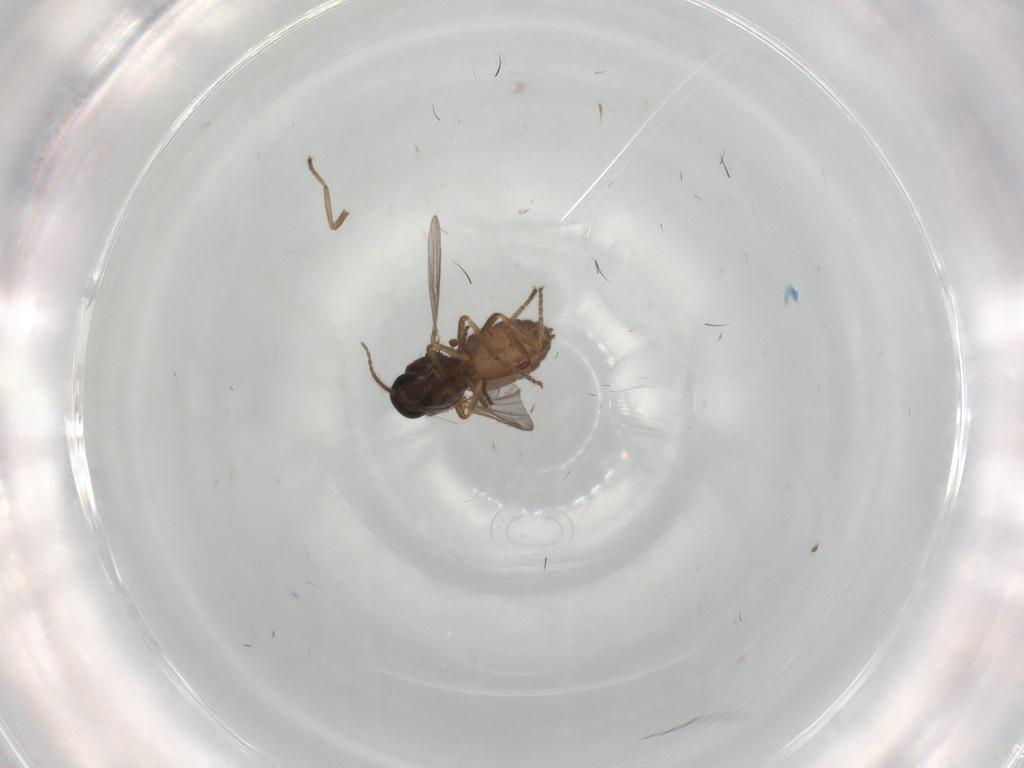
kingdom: Animalia
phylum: Arthropoda
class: Insecta
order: Diptera
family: Ceratopogonidae
